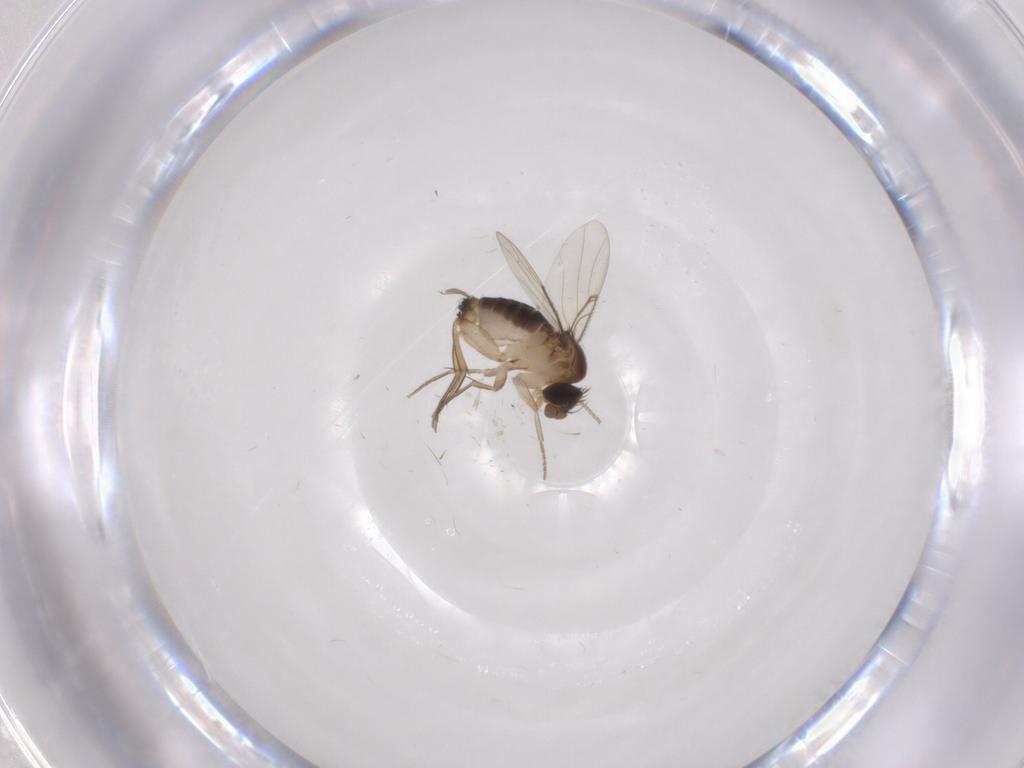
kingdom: Animalia
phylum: Arthropoda
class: Insecta
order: Diptera
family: Phoridae
